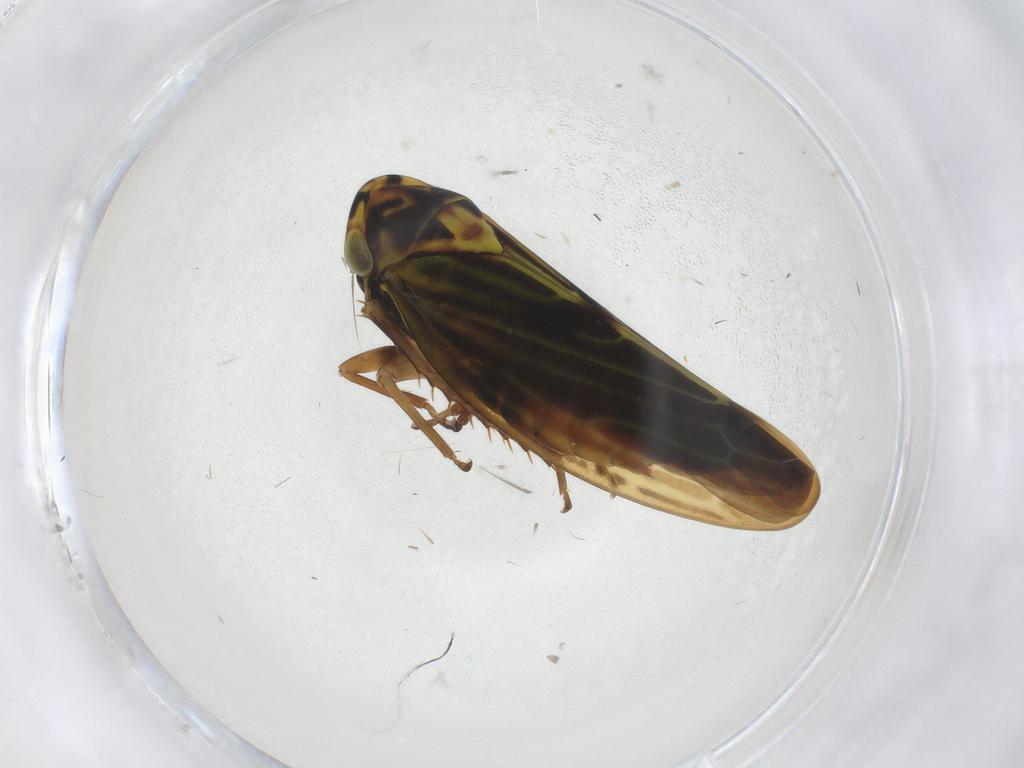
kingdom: Animalia
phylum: Arthropoda
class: Insecta
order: Hemiptera
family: Cicadellidae
